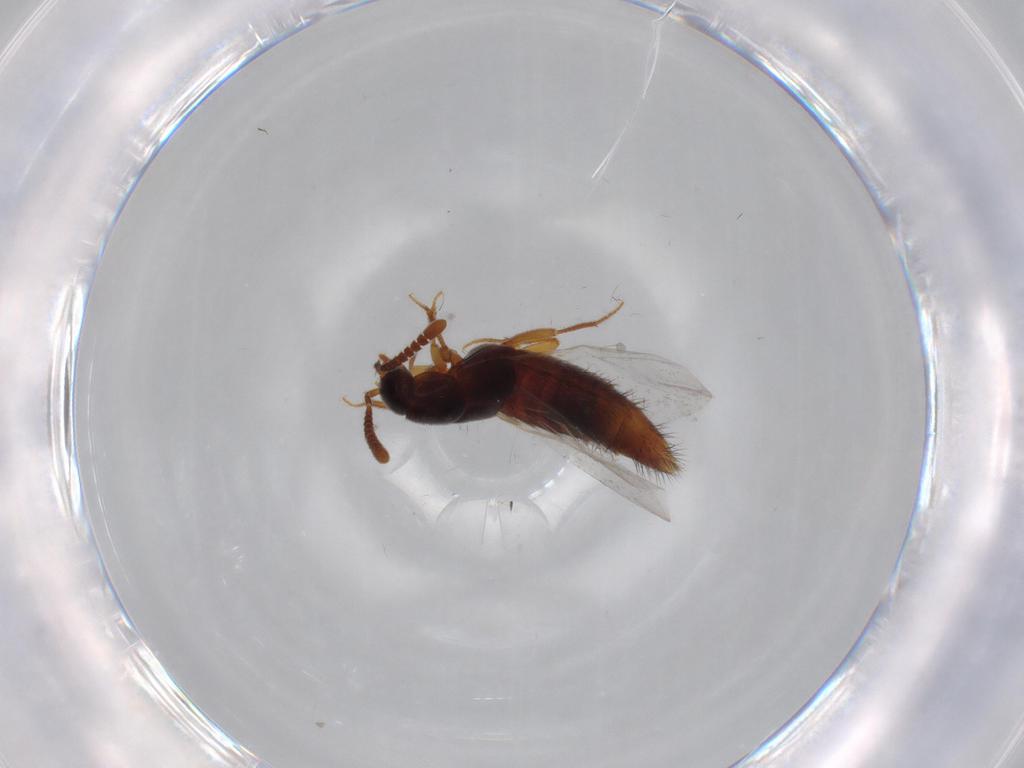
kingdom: Animalia
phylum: Arthropoda
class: Insecta
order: Coleoptera
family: Staphylinidae
